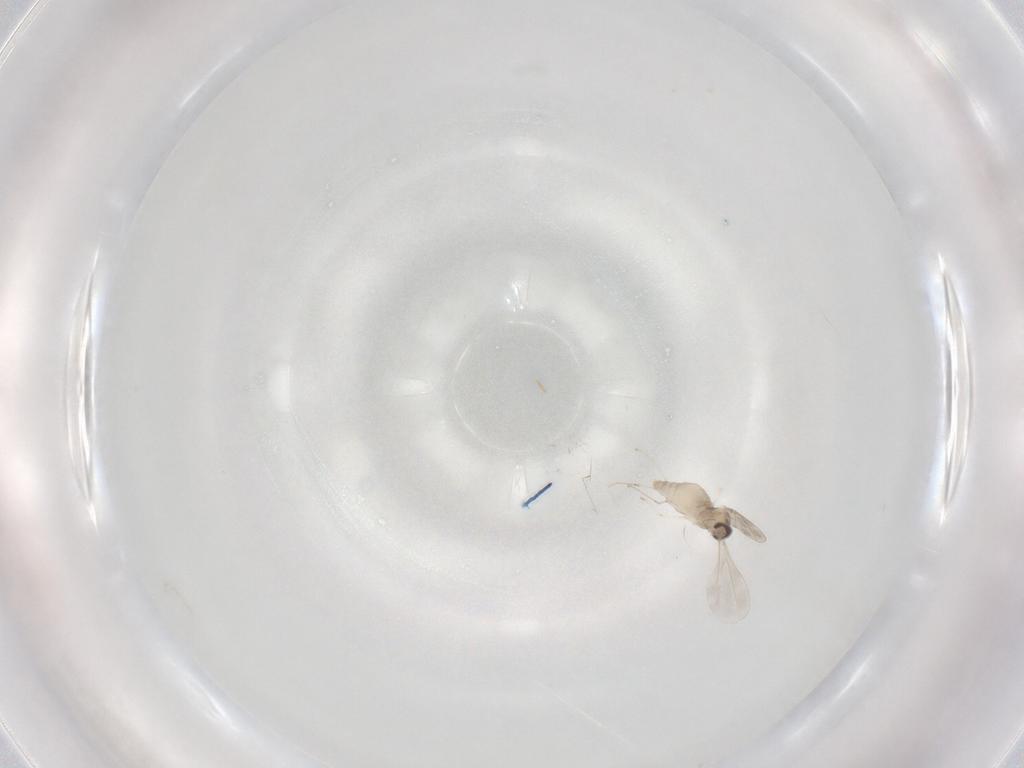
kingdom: Animalia
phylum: Arthropoda
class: Insecta
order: Diptera
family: Cecidomyiidae
